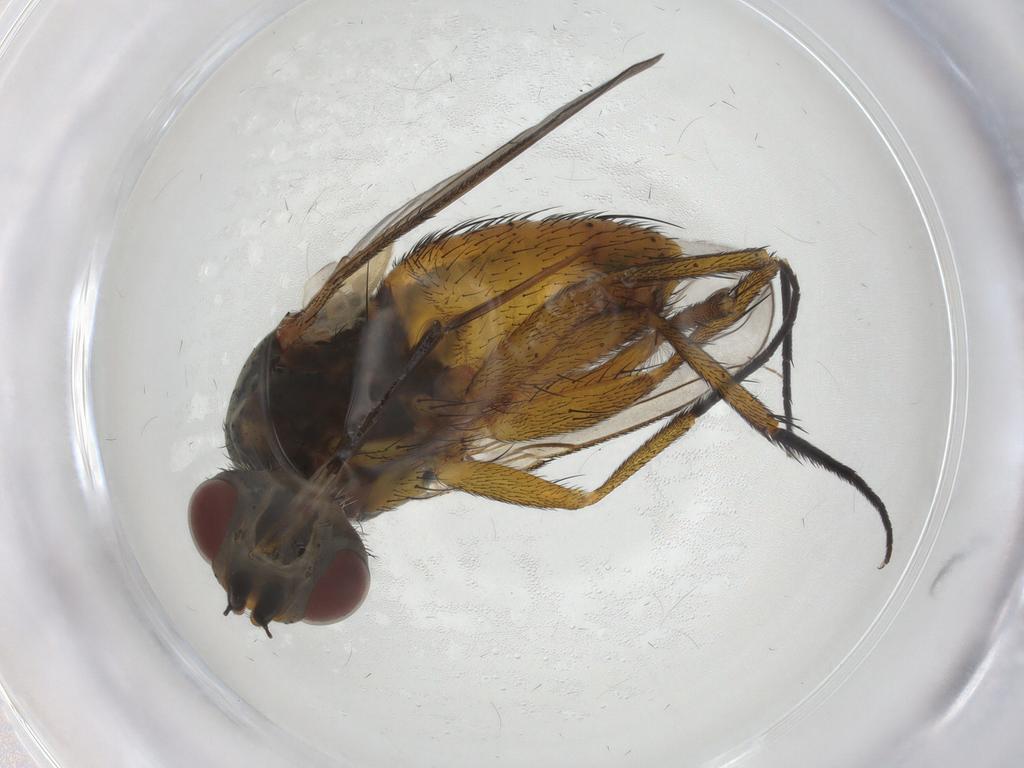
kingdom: Animalia
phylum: Arthropoda
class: Insecta
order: Diptera
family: Tachinidae
